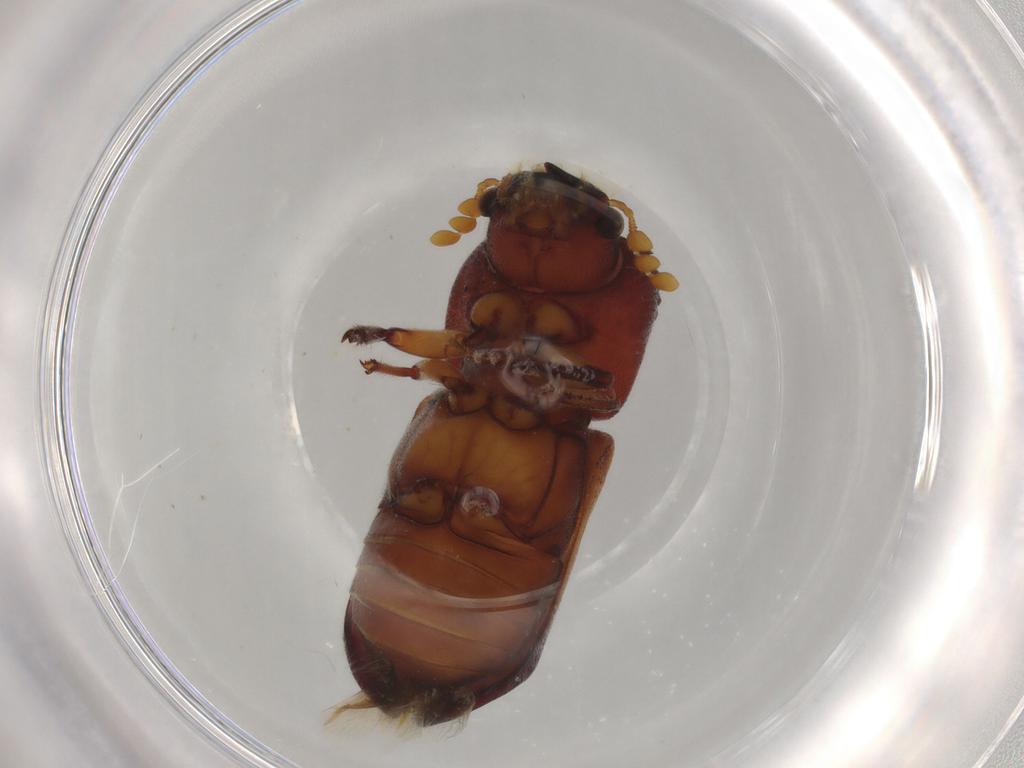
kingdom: Animalia
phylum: Arthropoda
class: Insecta
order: Coleoptera
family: Bostrichidae
